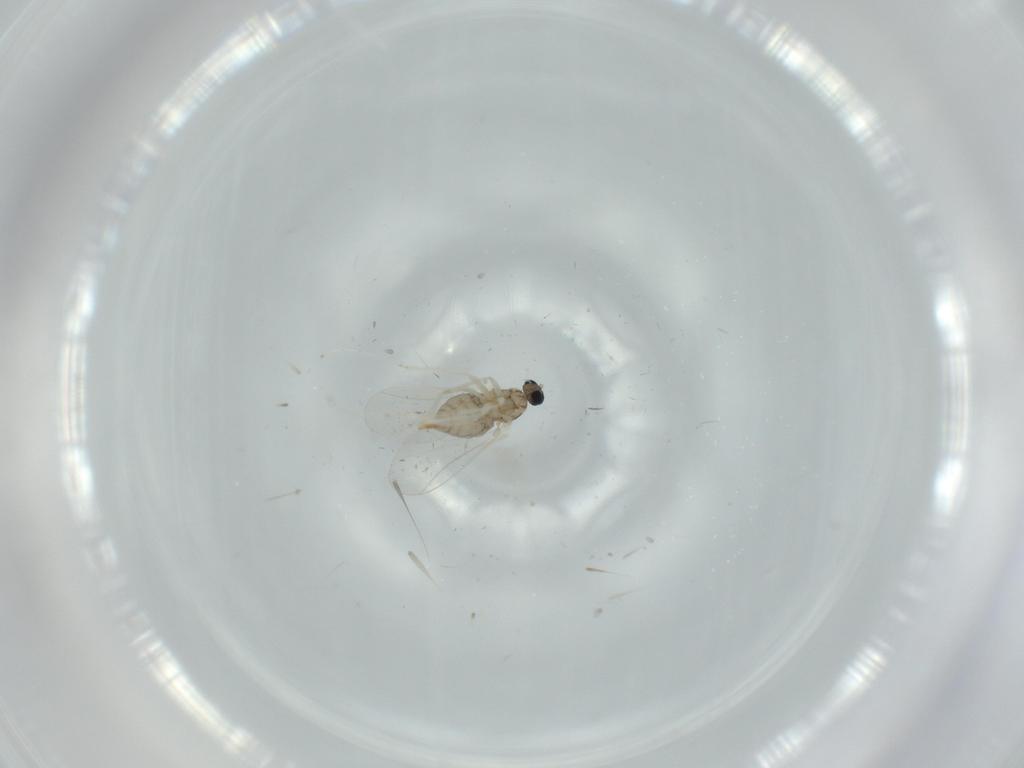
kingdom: Animalia
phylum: Arthropoda
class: Insecta
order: Diptera
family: Cecidomyiidae
